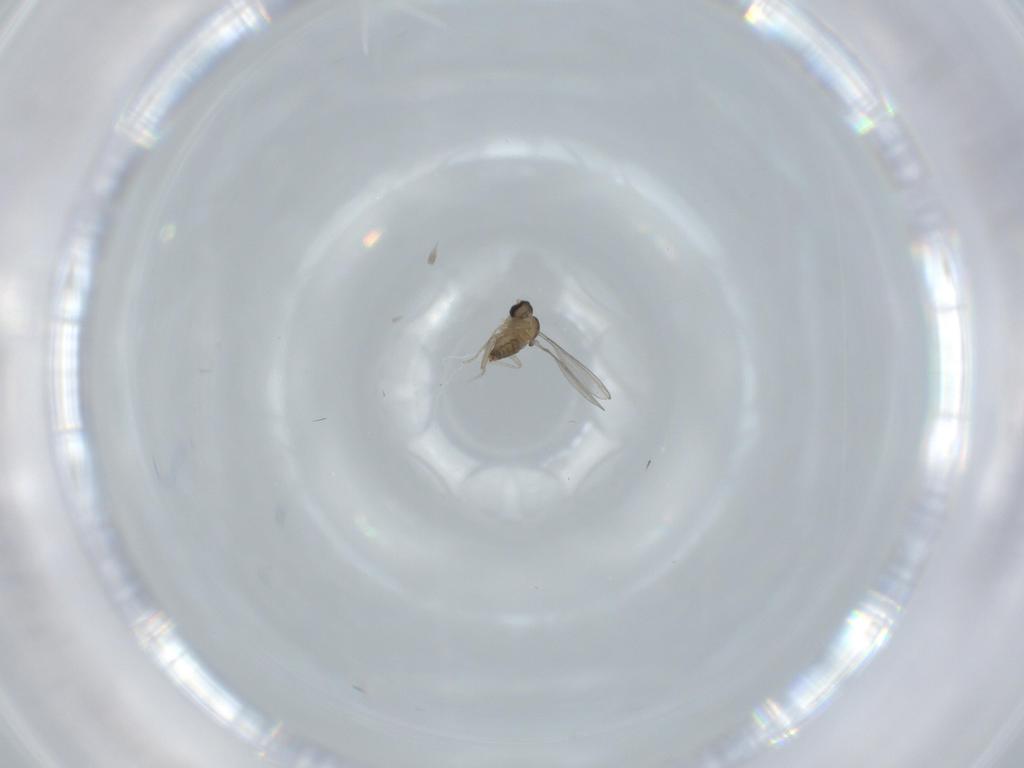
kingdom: Animalia
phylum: Arthropoda
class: Insecta
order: Diptera
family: Cecidomyiidae
